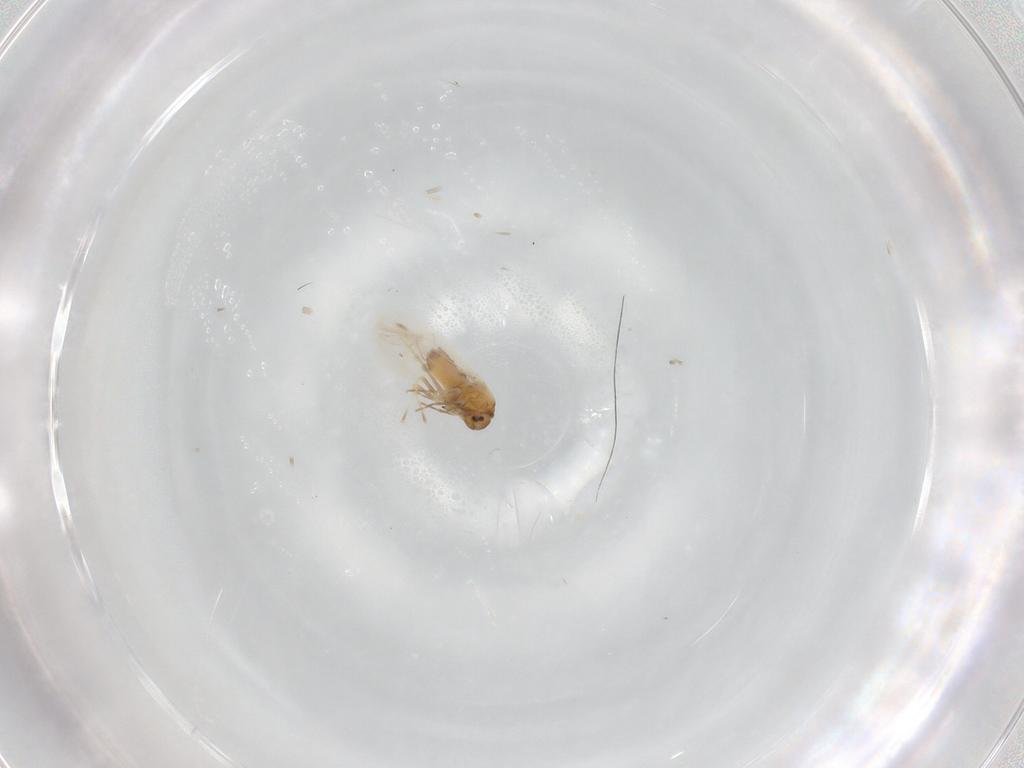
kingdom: Animalia
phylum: Arthropoda
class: Insecta
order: Hemiptera
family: Aleyrodidae
